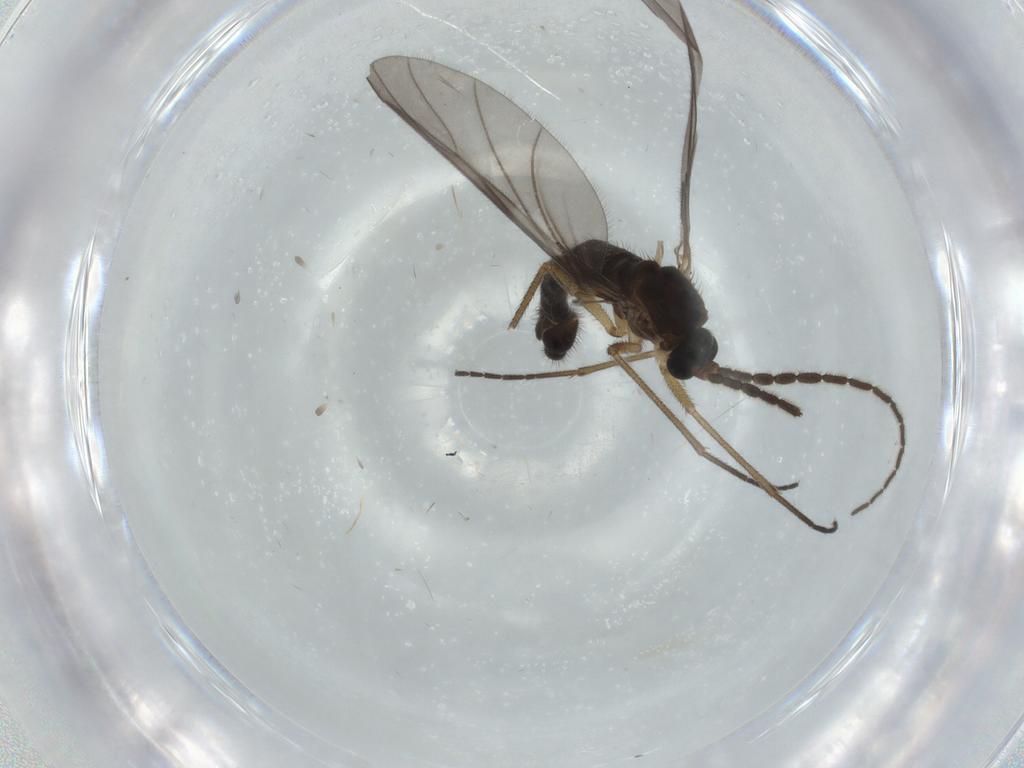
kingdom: Animalia
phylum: Arthropoda
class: Insecta
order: Diptera
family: Sciaridae
